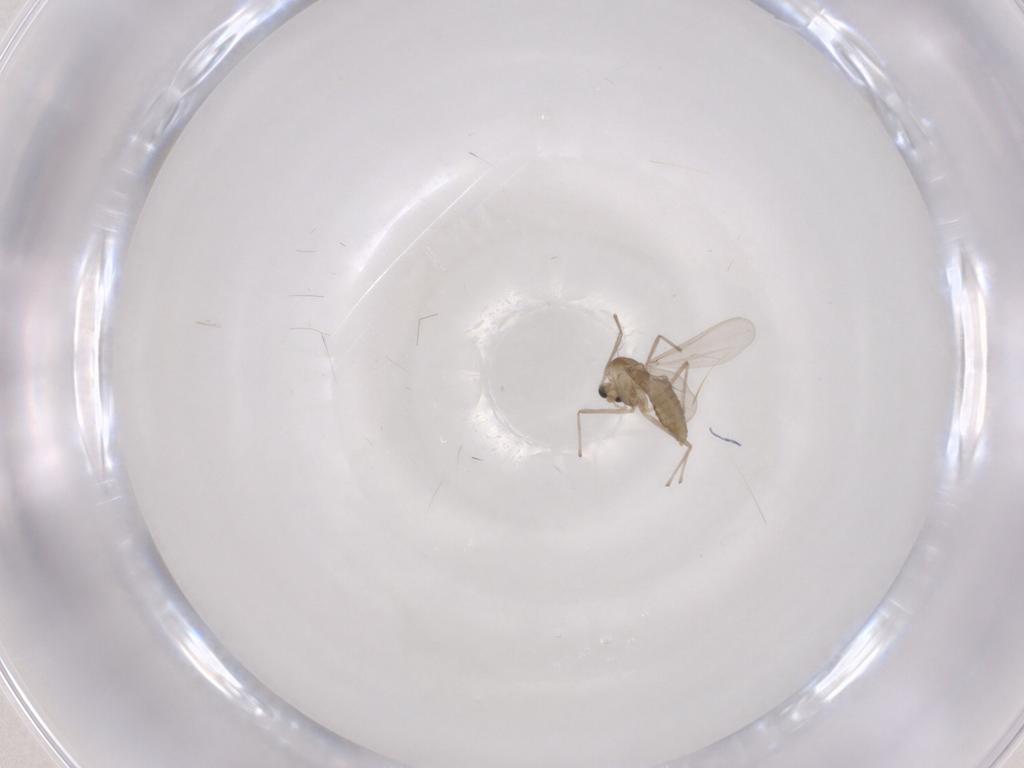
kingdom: Animalia
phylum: Arthropoda
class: Insecta
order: Diptera
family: Chironomidae
